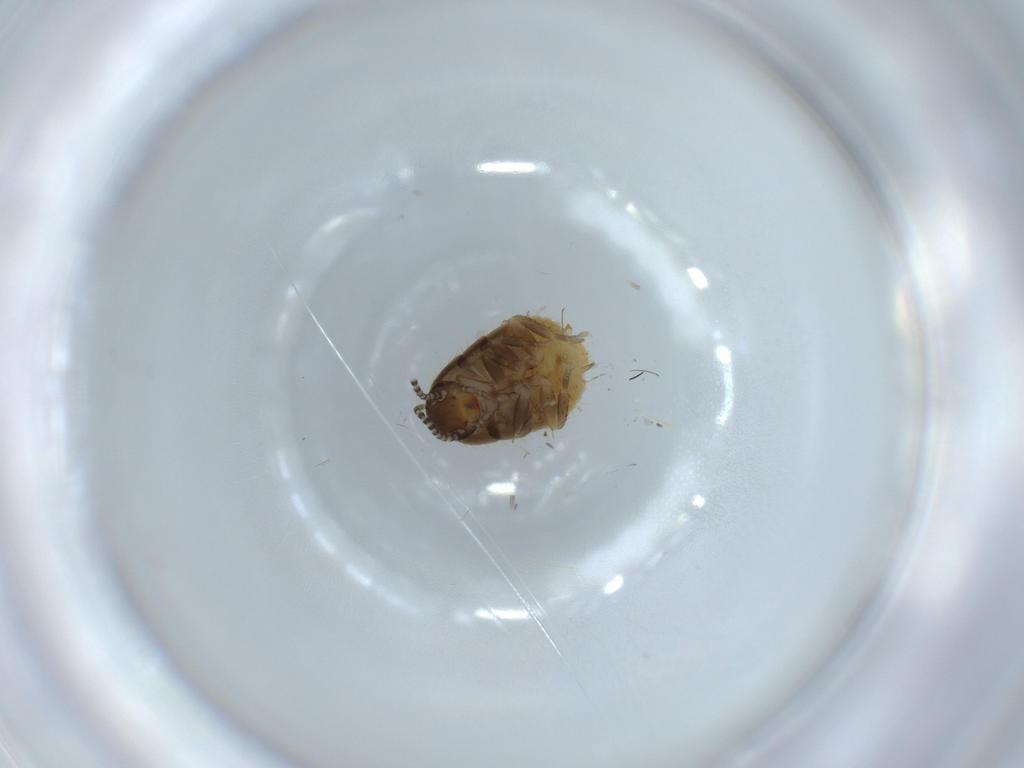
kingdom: Animalia
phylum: Arthropoda
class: Insecta
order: Blattodea
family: Blaberidae
